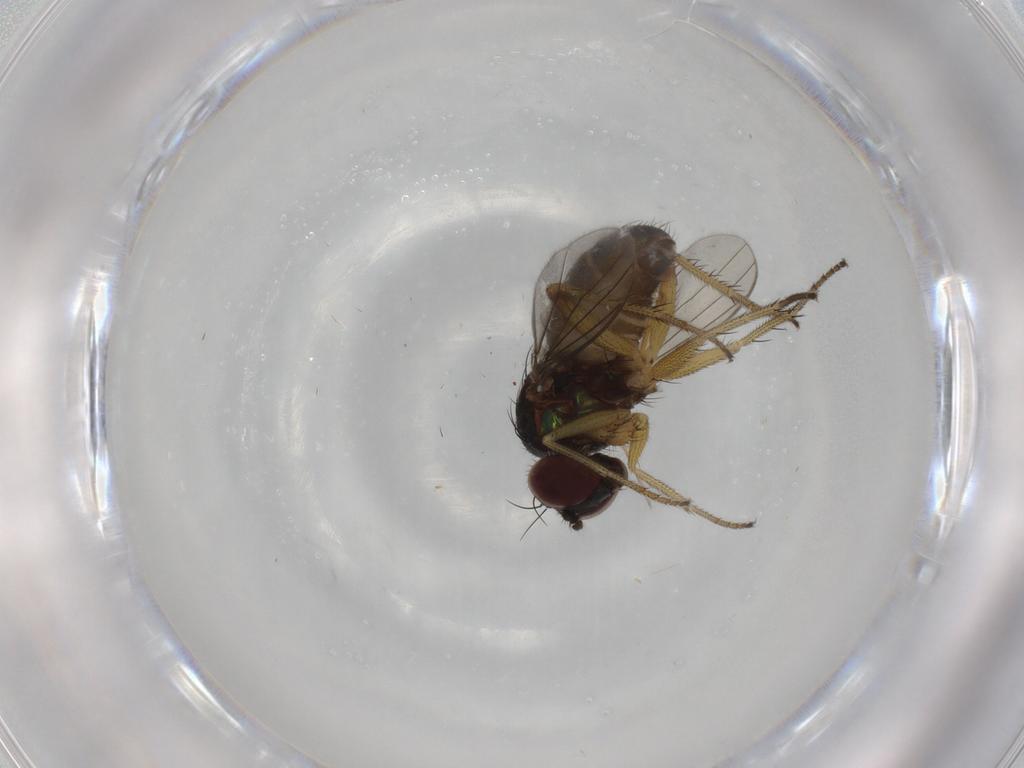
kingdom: Animalia
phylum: Arthropoda
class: Insecta
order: Diptera
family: Dolichopodidae
